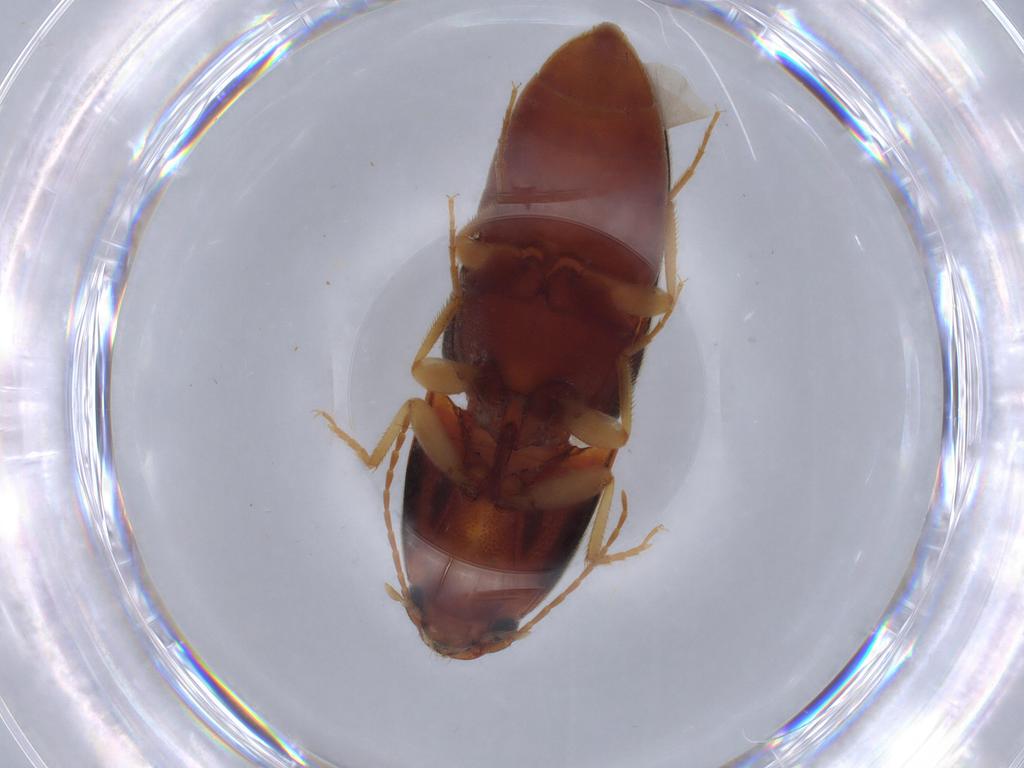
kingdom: Animalia
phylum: Arthropoda
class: Insecta
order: Coleoptera
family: Elateridae
